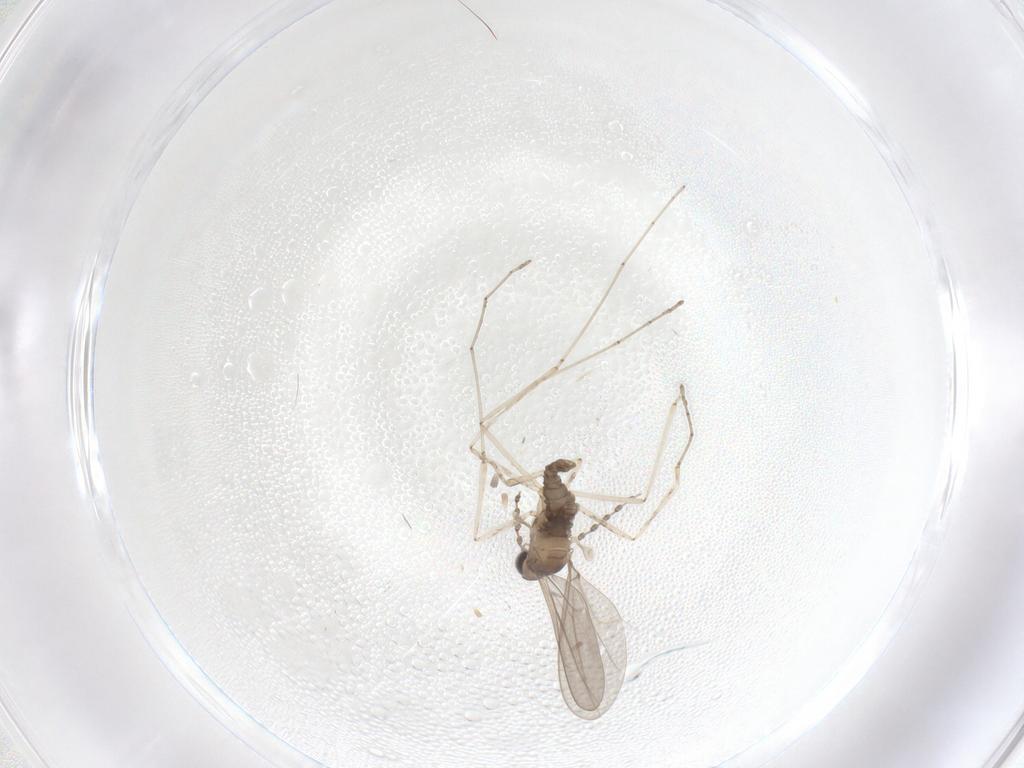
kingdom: Animalia
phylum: Arthropoda
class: Insecta
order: Diptera
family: Cecidomyiidae
